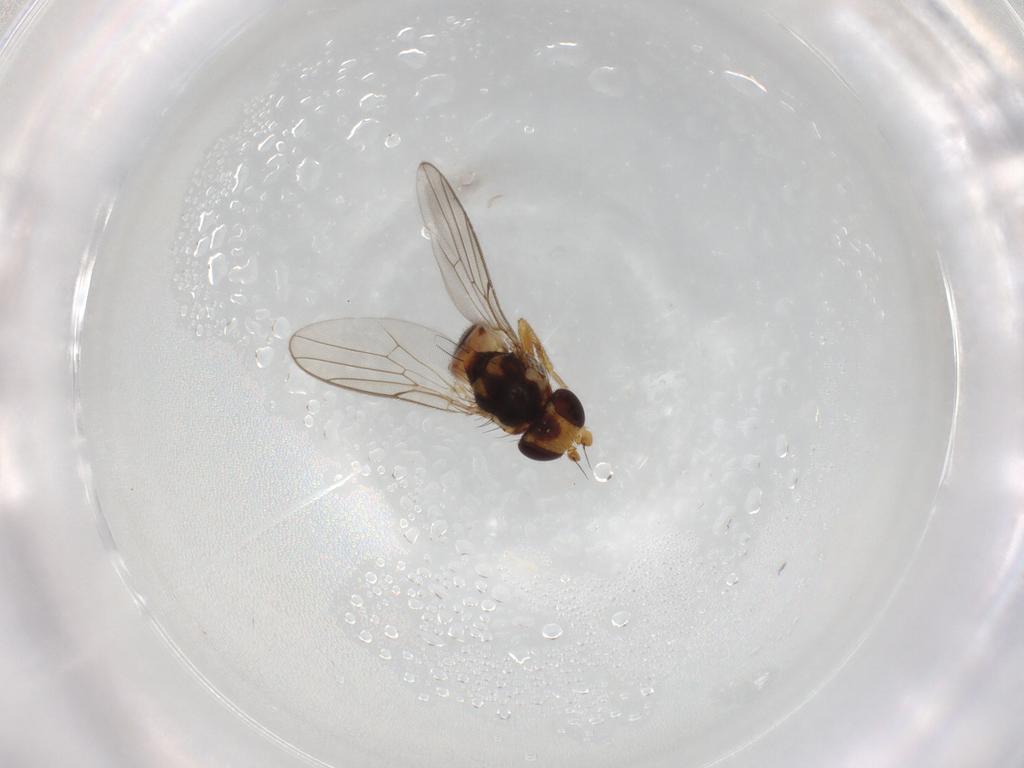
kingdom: Animalia
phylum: Arthropoda
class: Insecta
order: Diptera
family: Chloropidae
